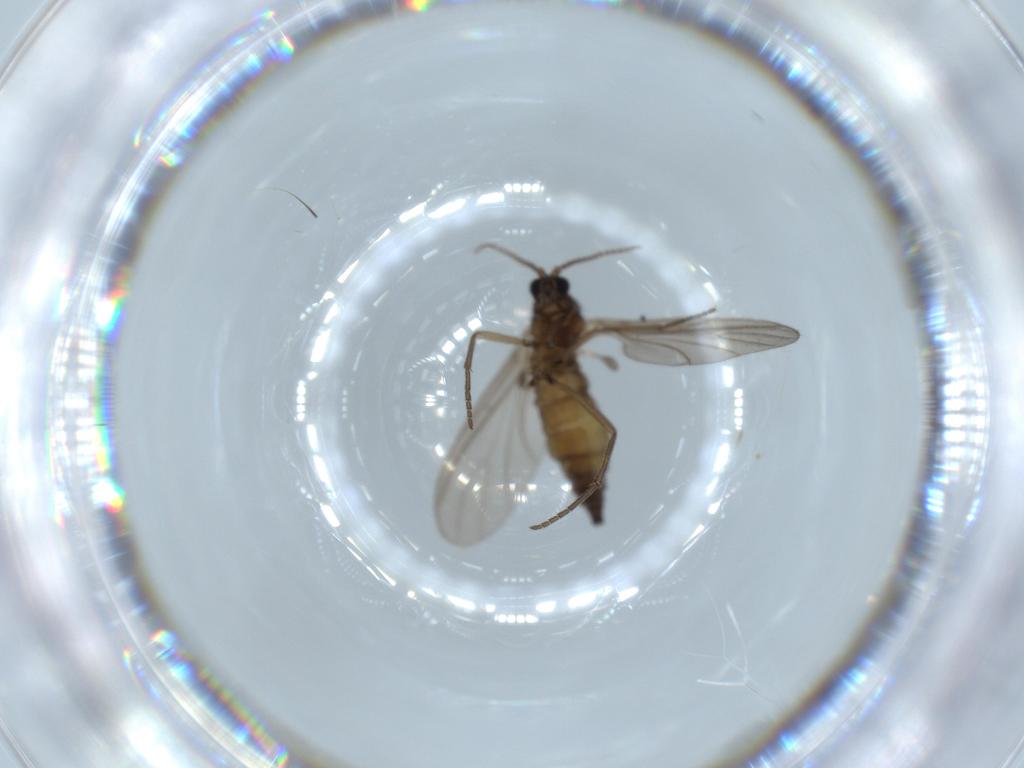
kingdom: Animalia
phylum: Arthropoda
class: Insecta
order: Diptera
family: Sciaridae
